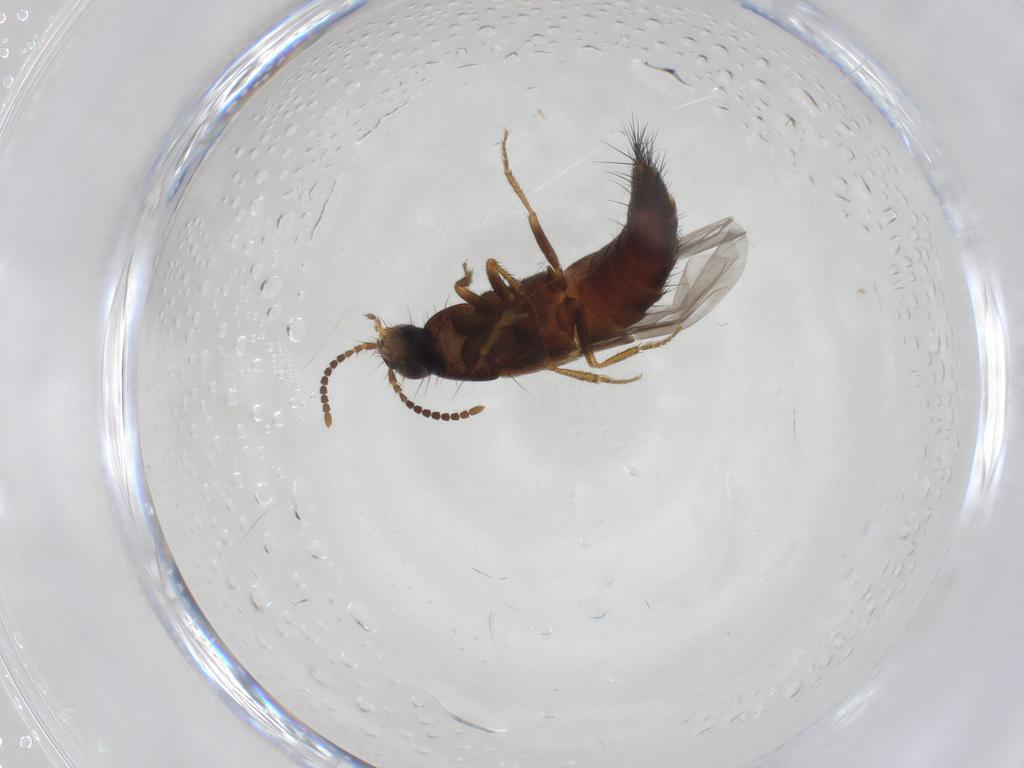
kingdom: Animalia
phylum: Arthropoda
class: Insecta
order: Coleoptera
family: Staphylinidae
